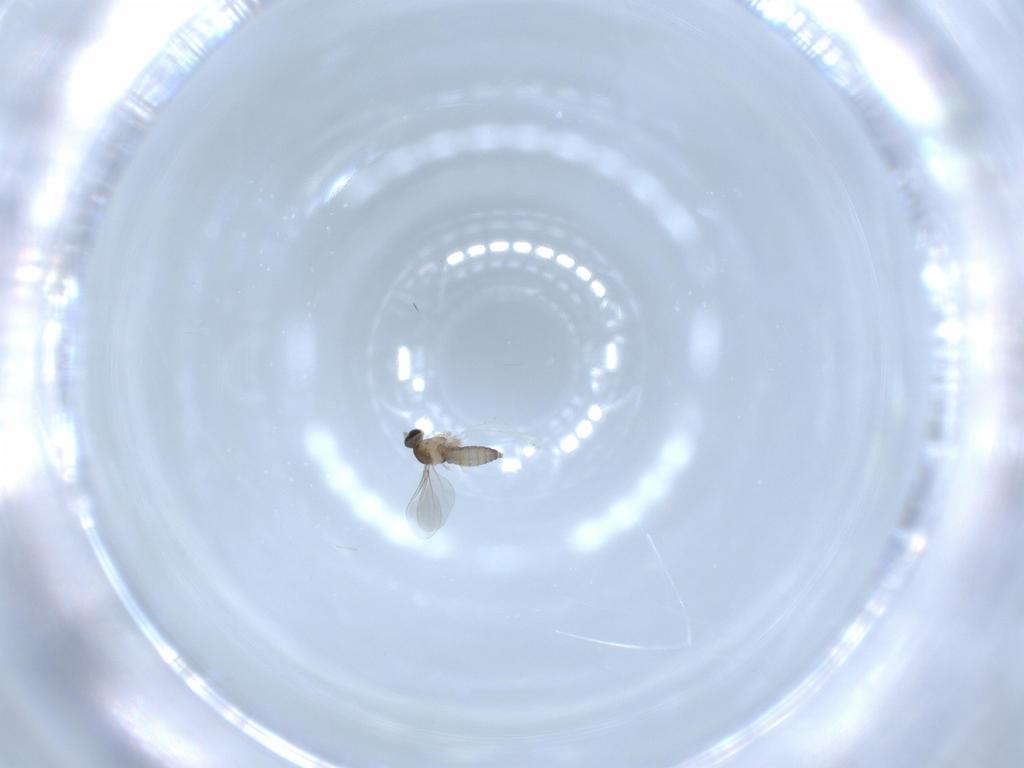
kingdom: Animalia
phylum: Arthropoda
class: Insecta
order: Diptera
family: Cecidomyiidae
